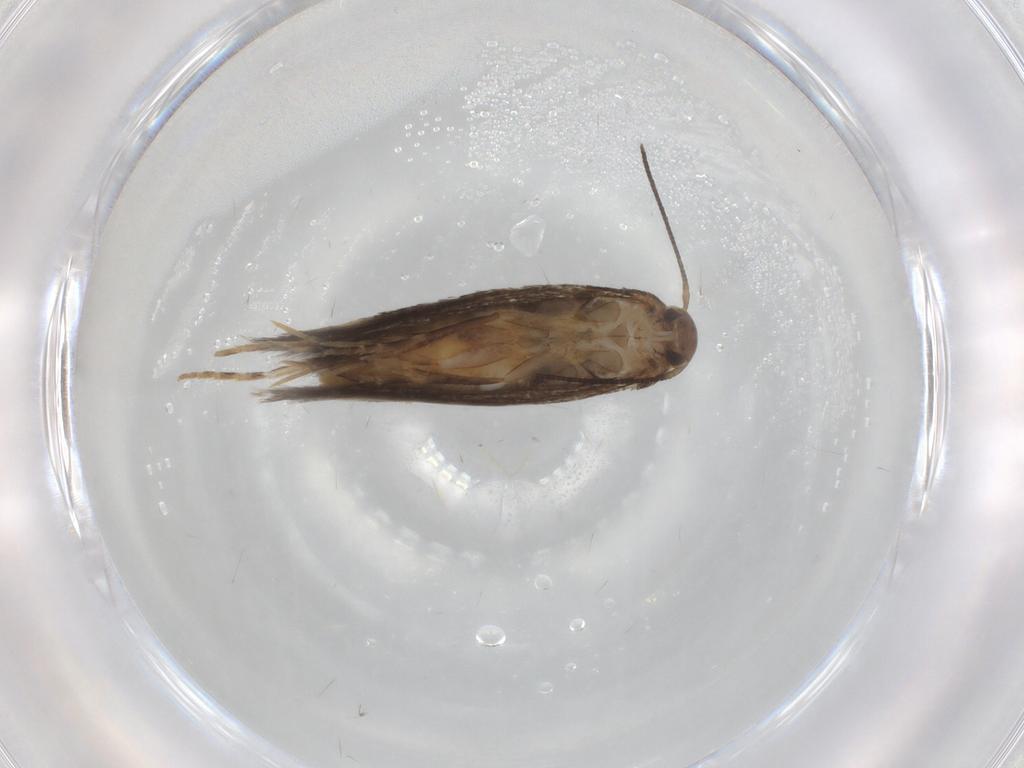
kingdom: Animalia
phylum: Arthropoda
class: Insecta
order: Lepidoptera
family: Elachistidae
